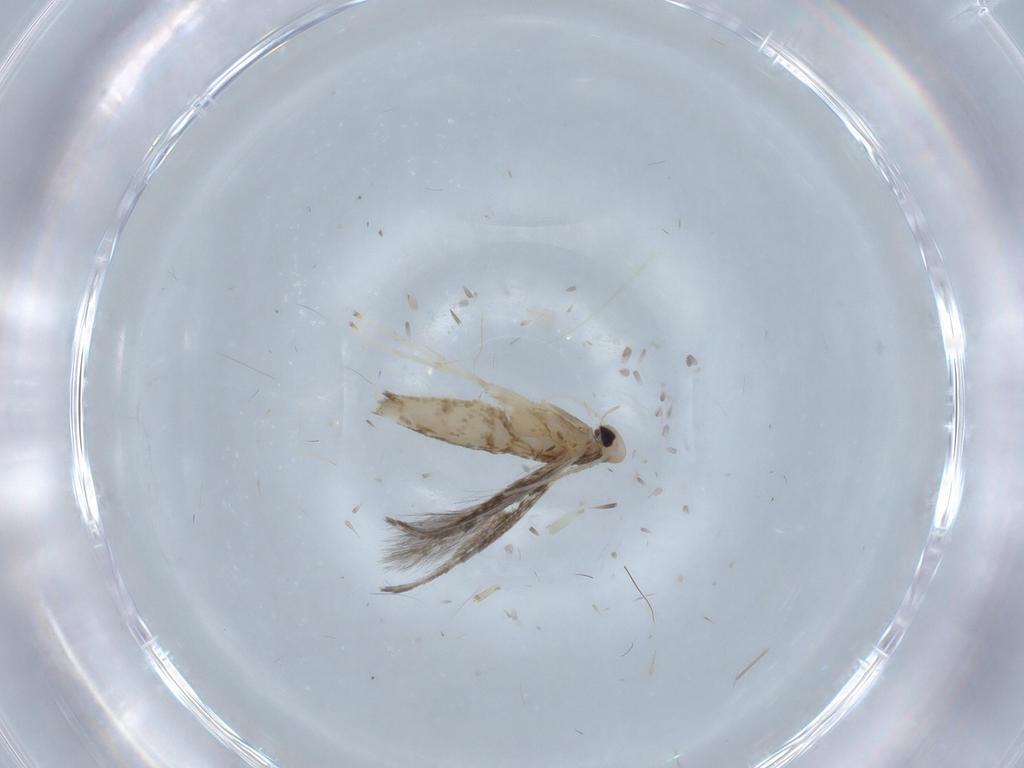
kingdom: Animalia
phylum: Arthropoda
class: Insecta
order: Lepidoptera
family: Gracillariidae
